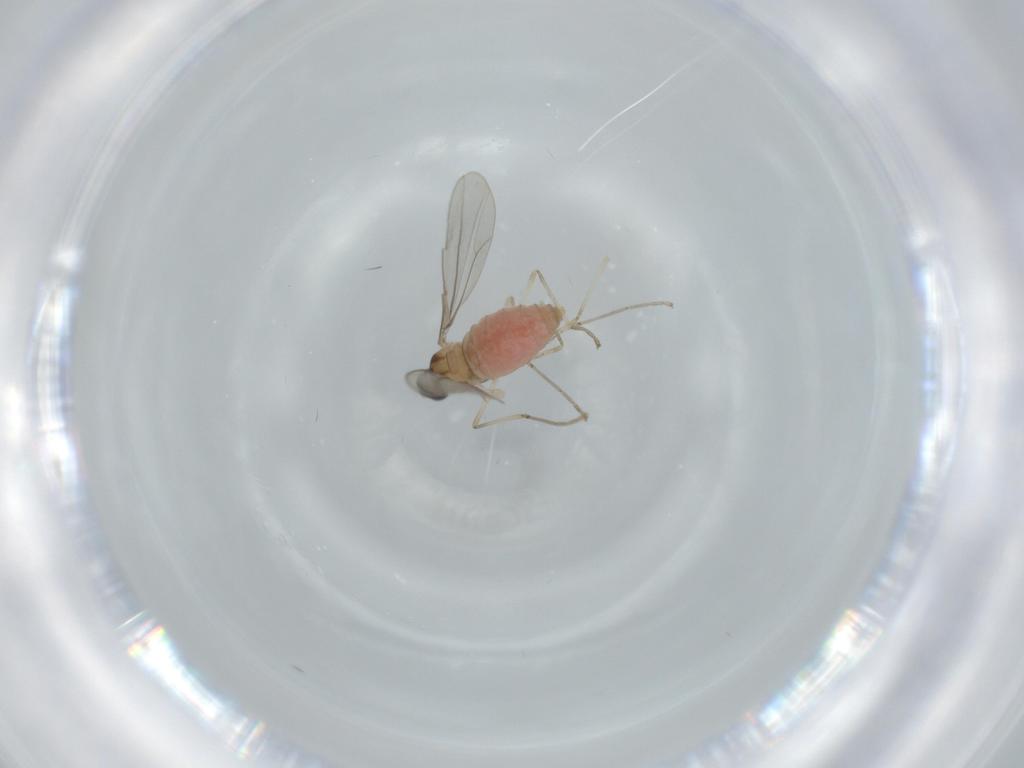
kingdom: Animalia
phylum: Arthropoda
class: Insecta
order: Diptera
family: Cecidomyiidae
